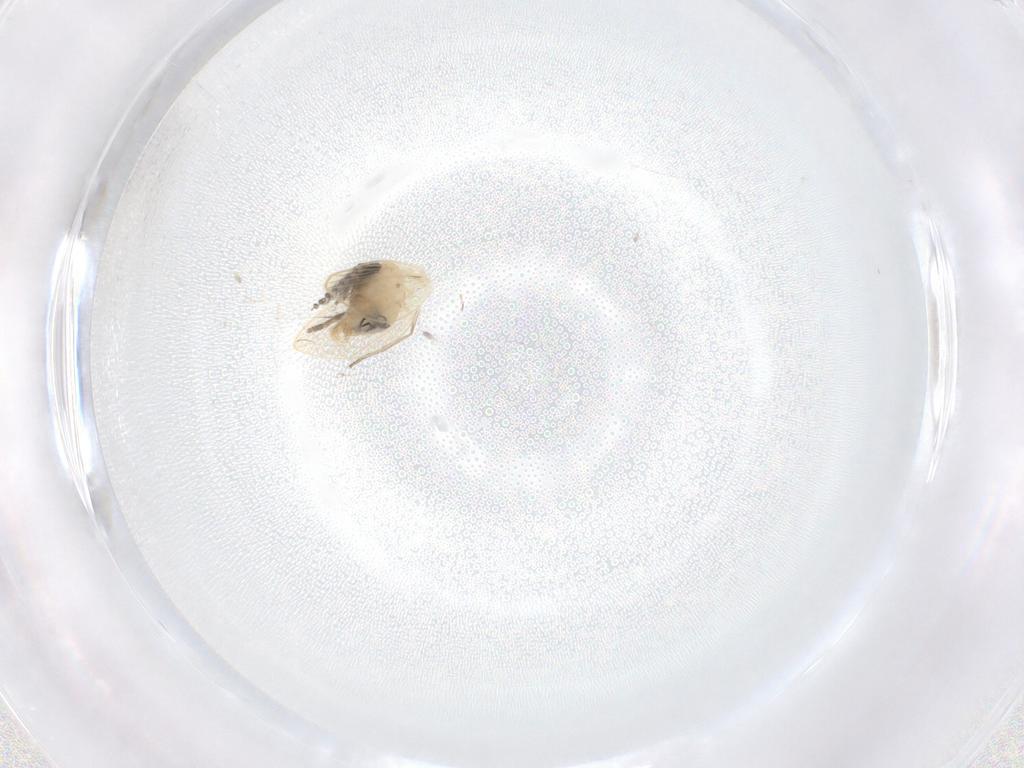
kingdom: Animalia
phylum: Arthropoda
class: Insecta
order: Diptera
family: Psychodidae
